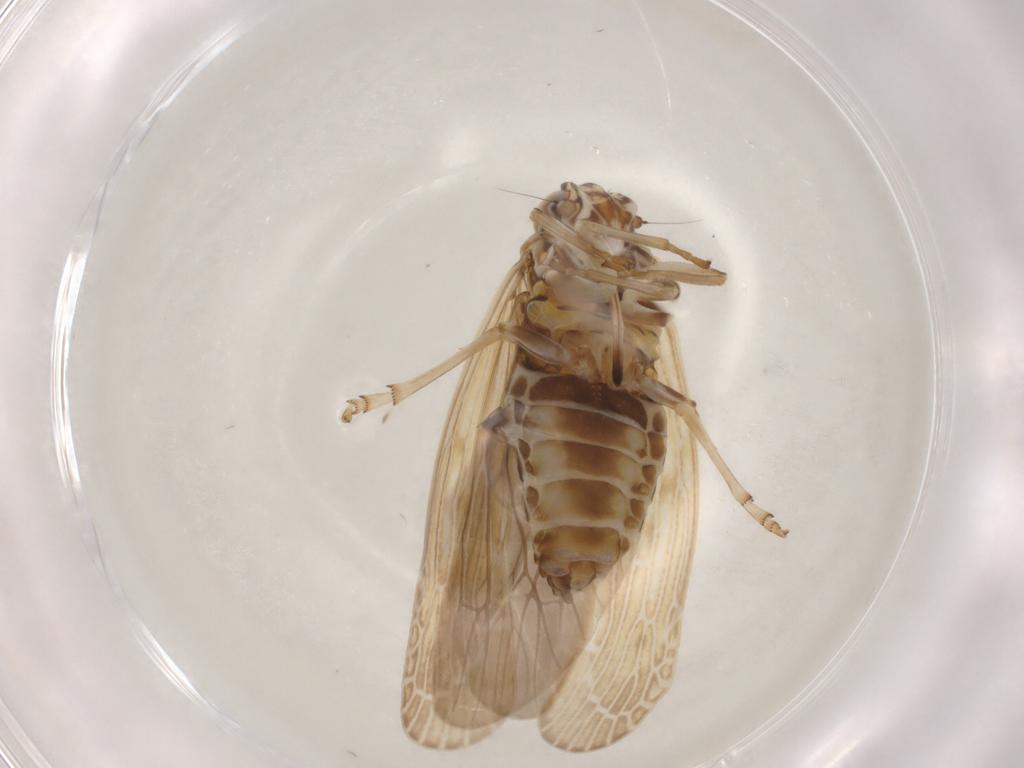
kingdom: Animalia
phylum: Arthropoda
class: Insecta
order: Hemiptera
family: Achilidae
